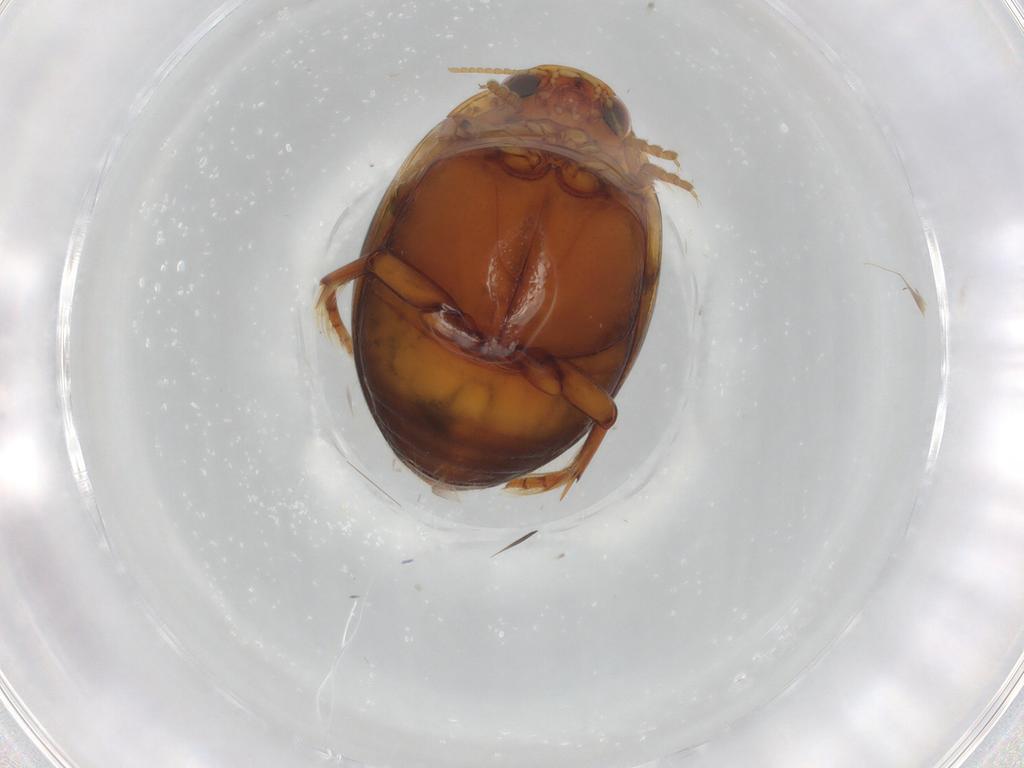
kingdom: Animalia
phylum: Arthropoda
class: Insecta
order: Coleoptera
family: Dytiscidae
